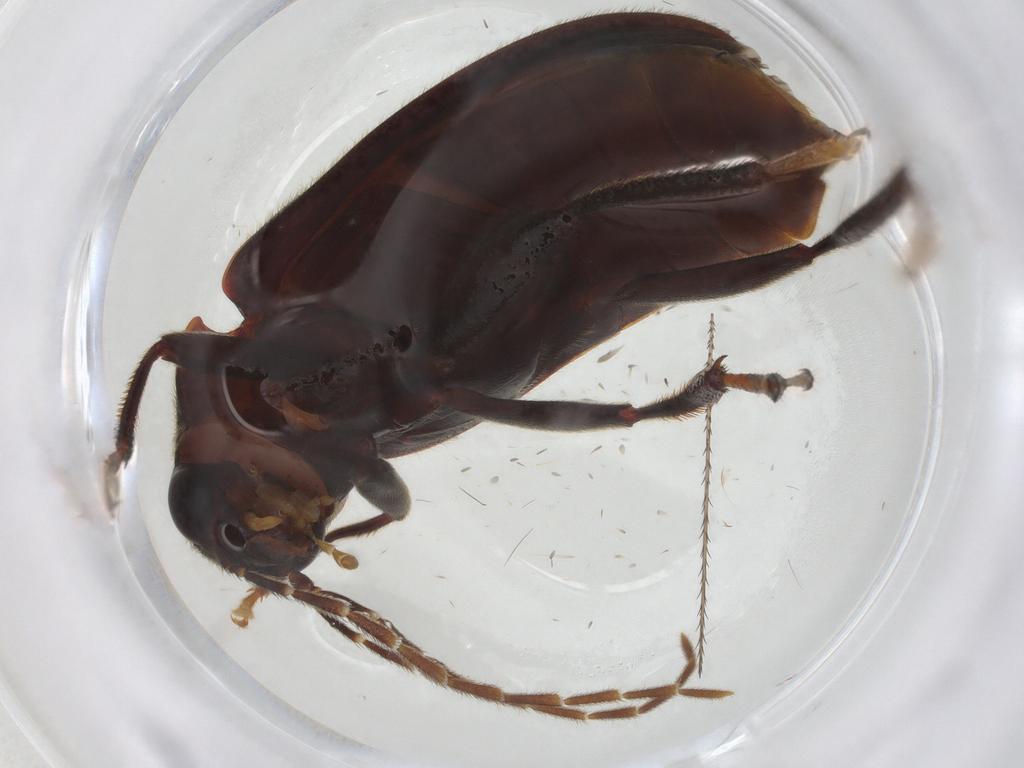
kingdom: Animalia
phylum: Arthropoda
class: Insecta
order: Coleoptera
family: Ptilodactylidae
